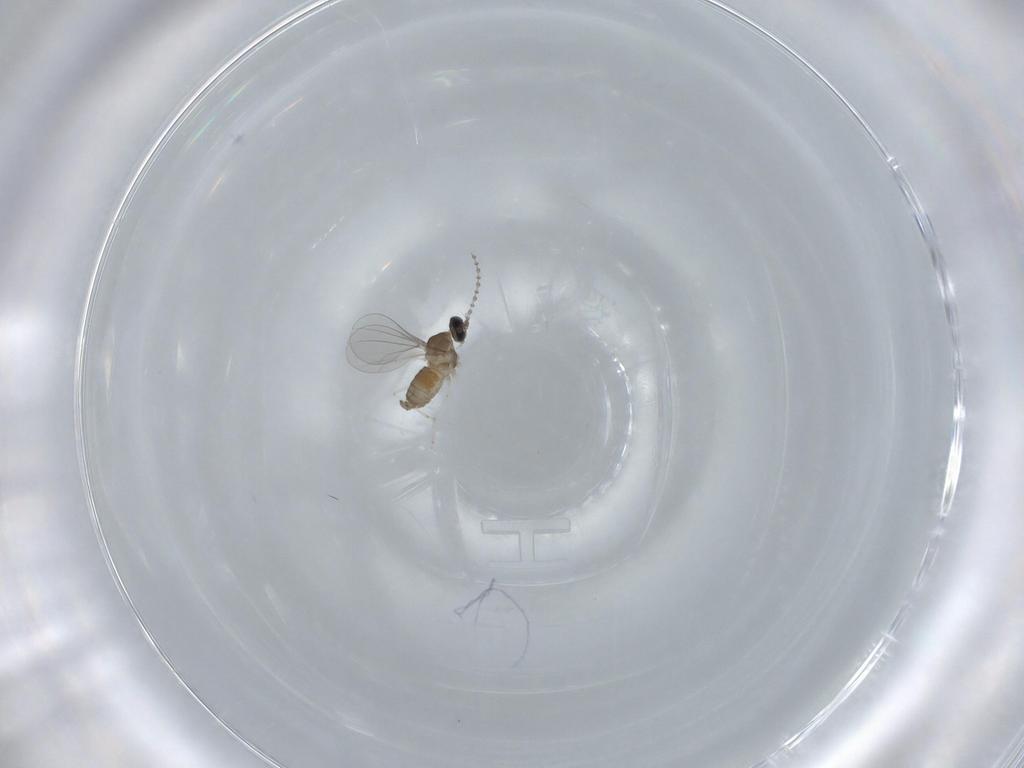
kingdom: Animalia
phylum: Arthropoda
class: Insecta
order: Diptera
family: Cecidomyiidae
